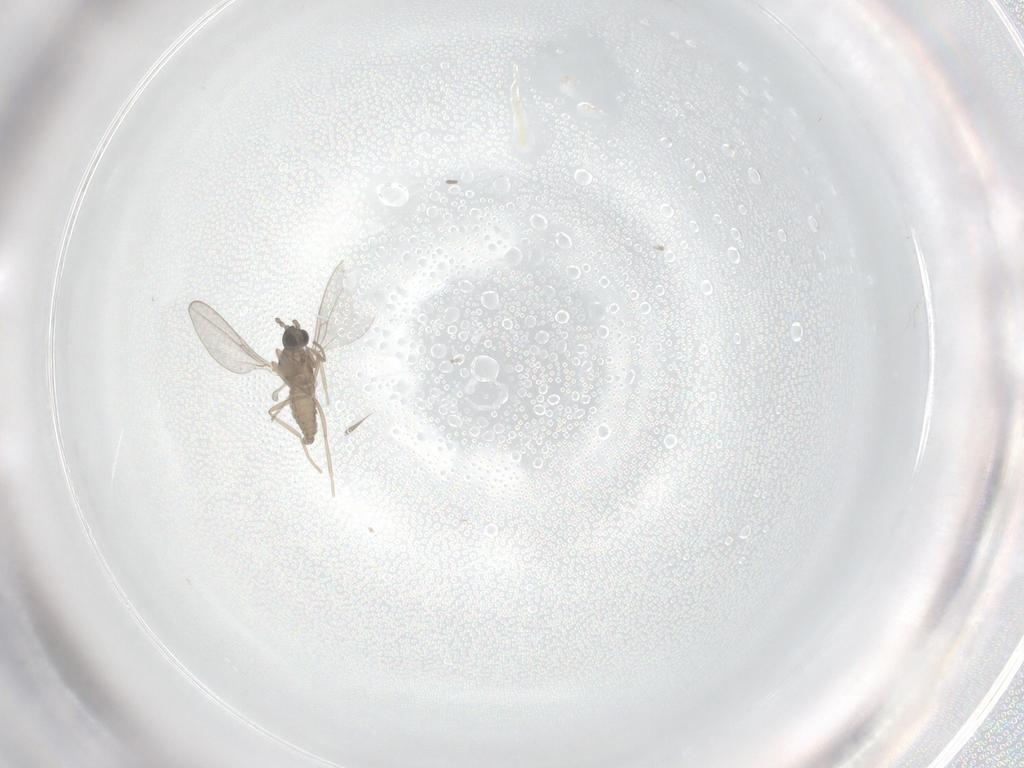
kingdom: Animalia
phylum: Arthropoda
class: Insecta
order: Diptera
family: Cecidomyiidae
